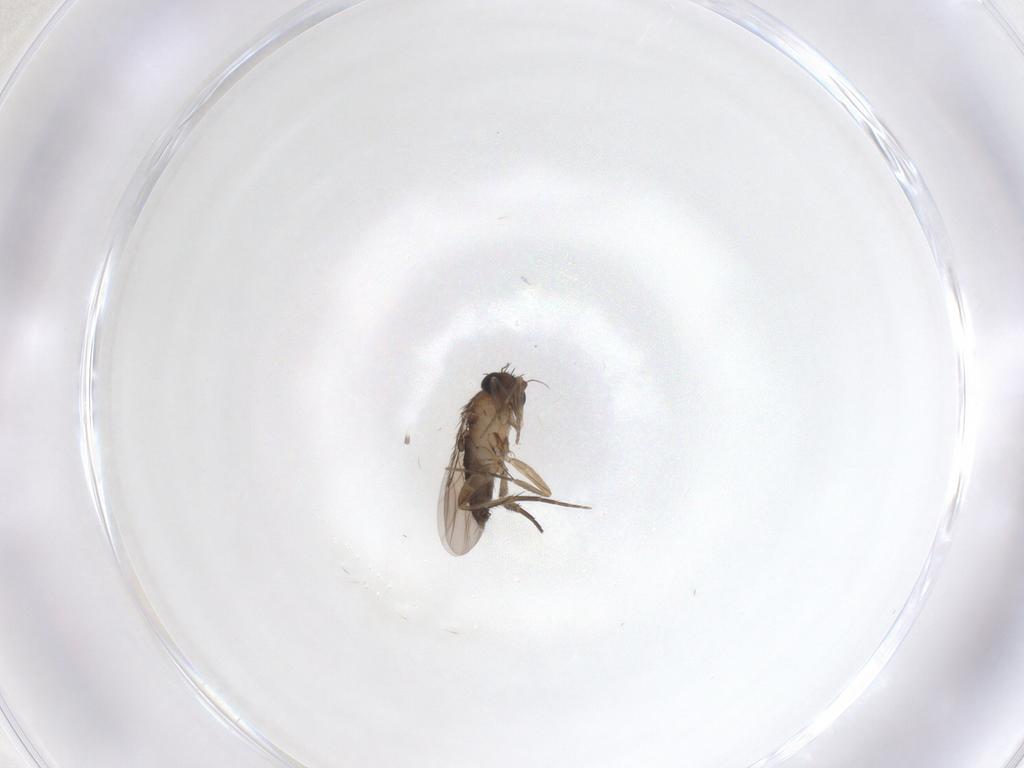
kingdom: Animalia
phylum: Arthropoda
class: Insecta
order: Diptera
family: Phoridae
